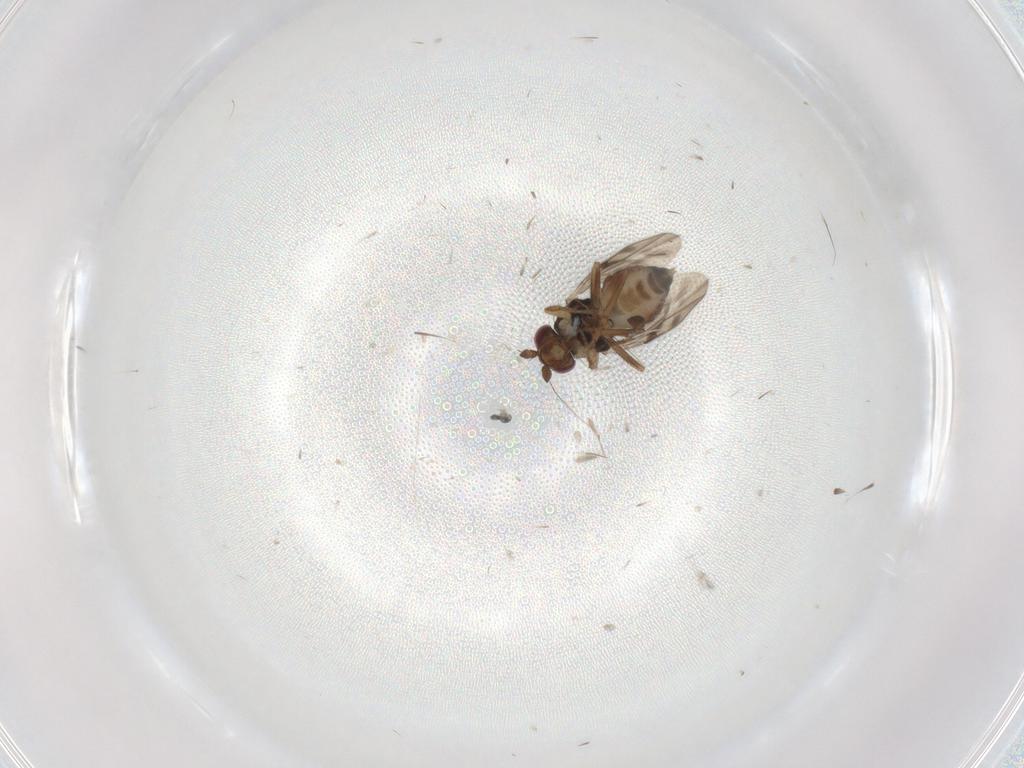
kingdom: Animalia
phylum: Arthropoda
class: Insecta
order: Diptera
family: Sphaeroceridae
